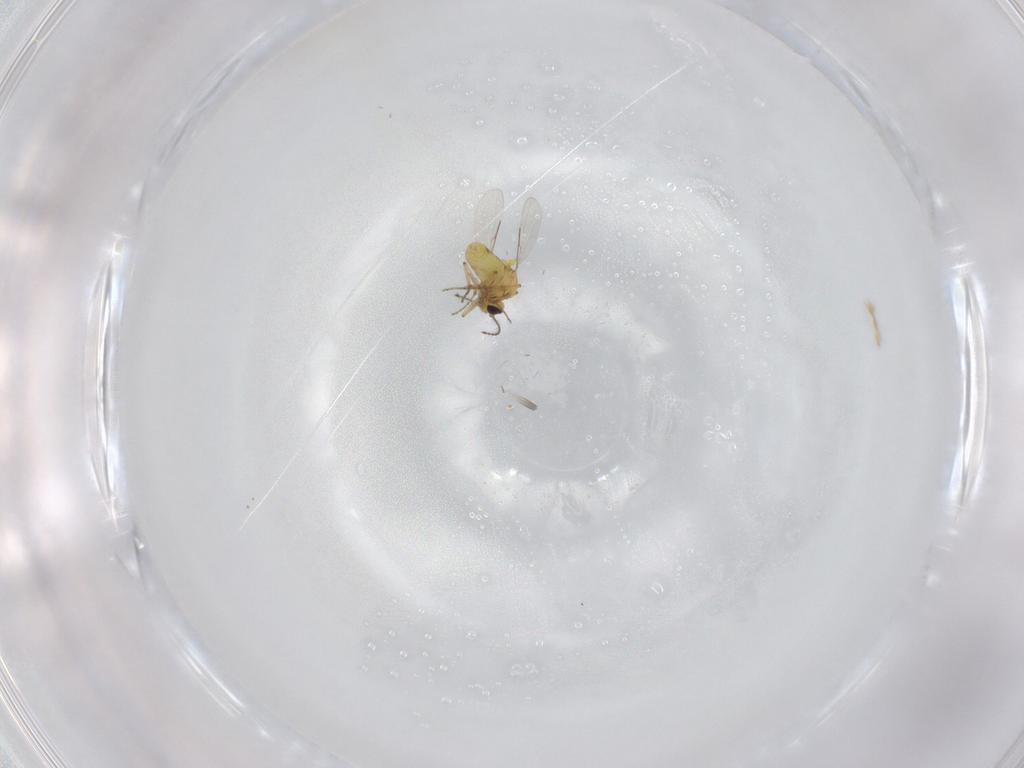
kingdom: Animalia
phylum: Arthropoda
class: Insecta
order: Diptera
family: Ceratopogonidae
